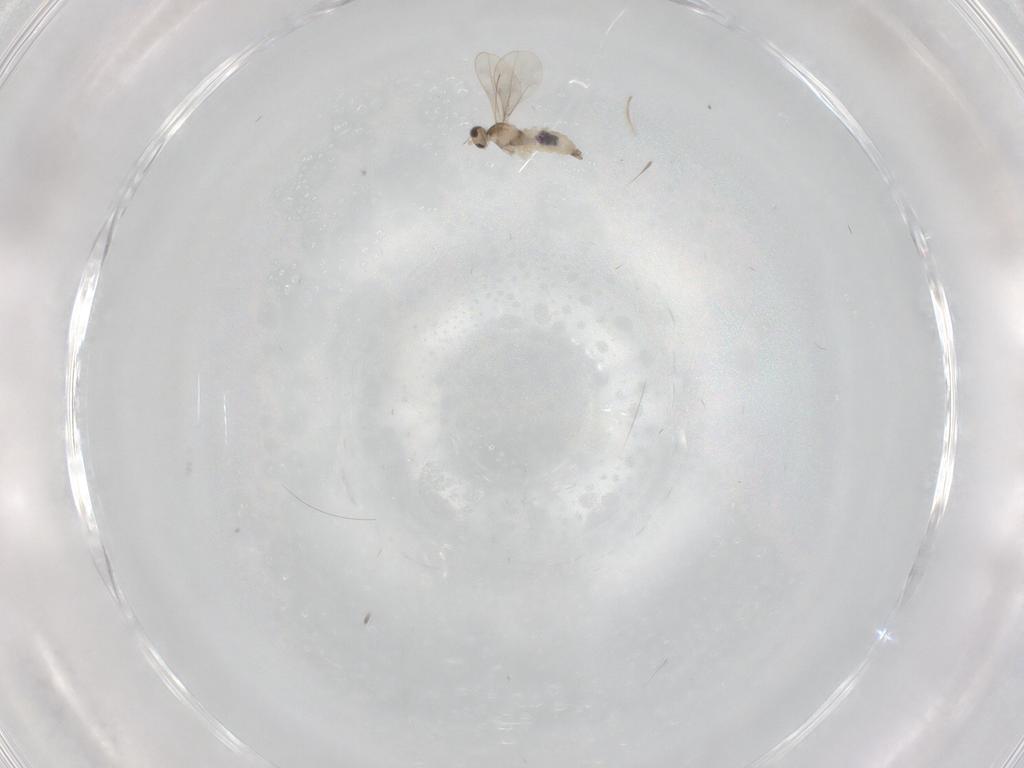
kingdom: Animalia
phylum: Arthropoda
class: Insecta
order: Diptera
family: Cecidomyiidae
